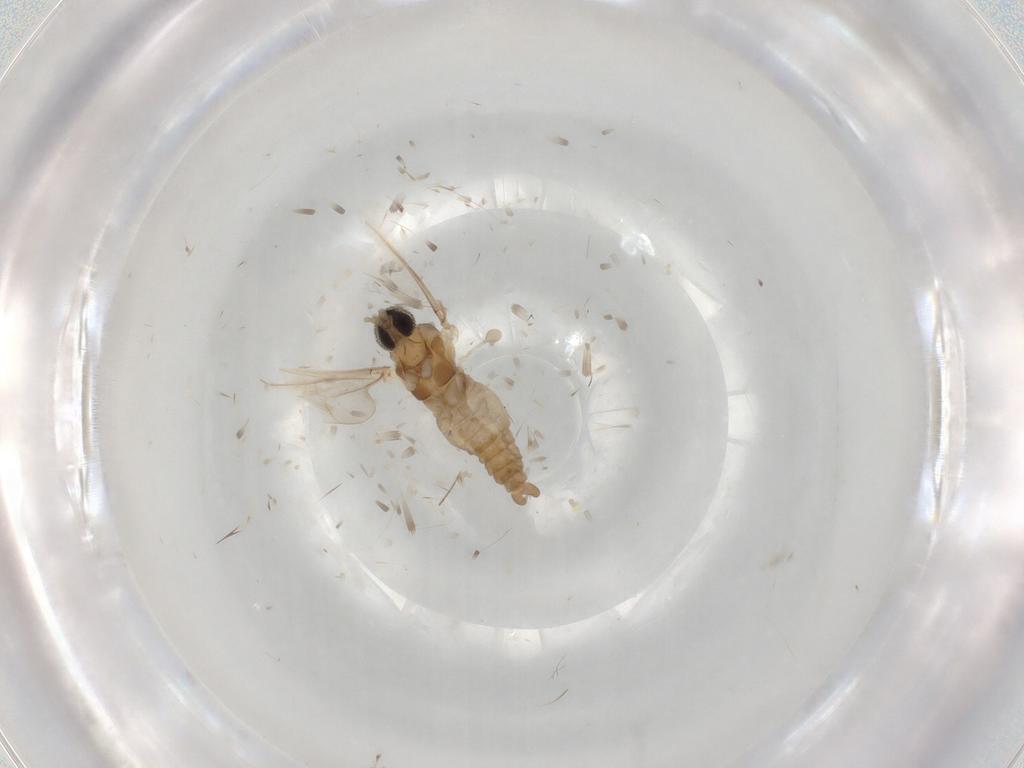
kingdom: Animalia
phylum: Arthropoda
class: Insecta
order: Diptera
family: Cecidomyiidae
